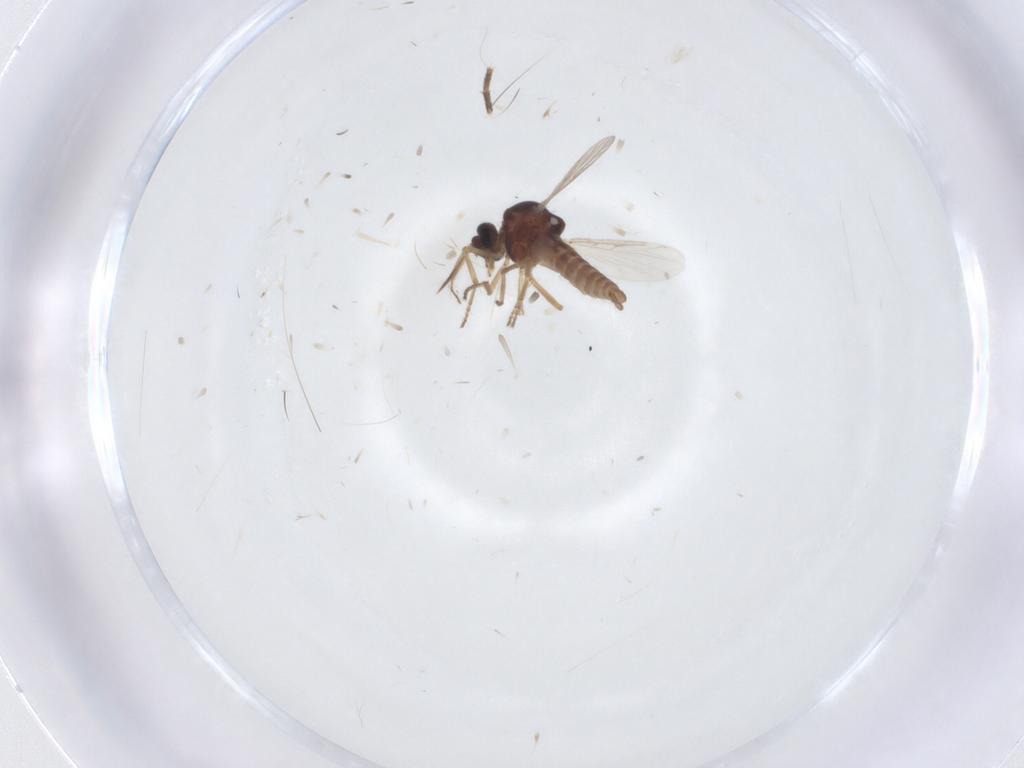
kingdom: Animalia
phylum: Arthropoda
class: Insecta
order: Diptera
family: Ceratopogonidae
